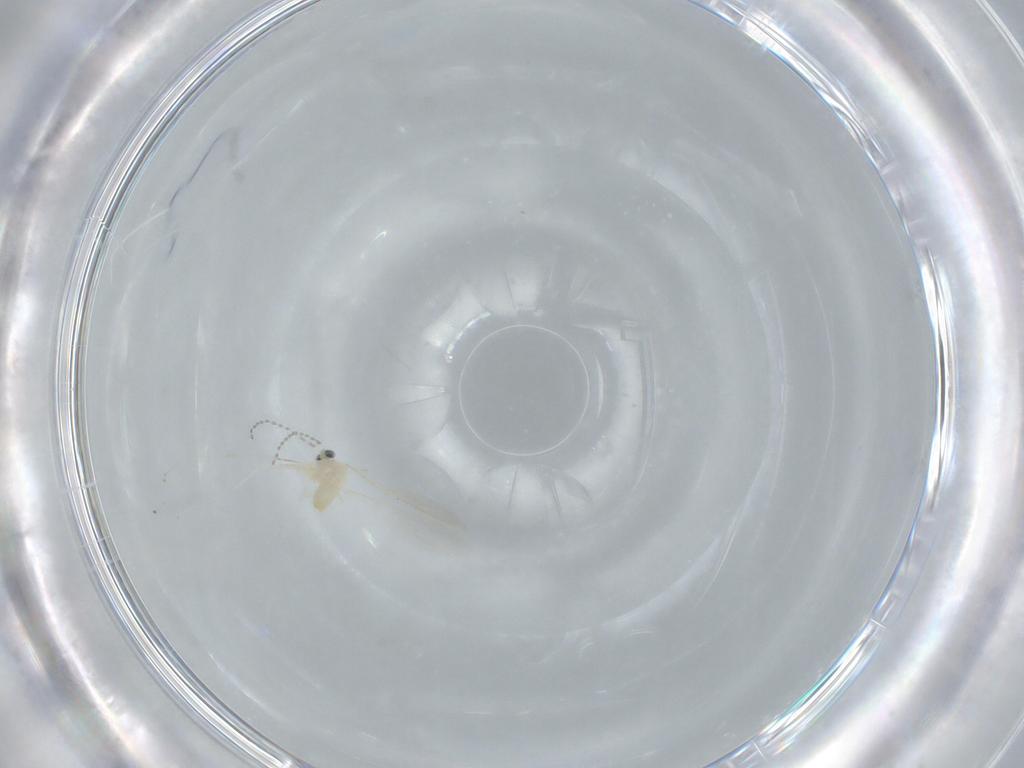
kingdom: Animalia
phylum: Arthropoda
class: Insecta
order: Diptera
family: Cecidomyiidae
